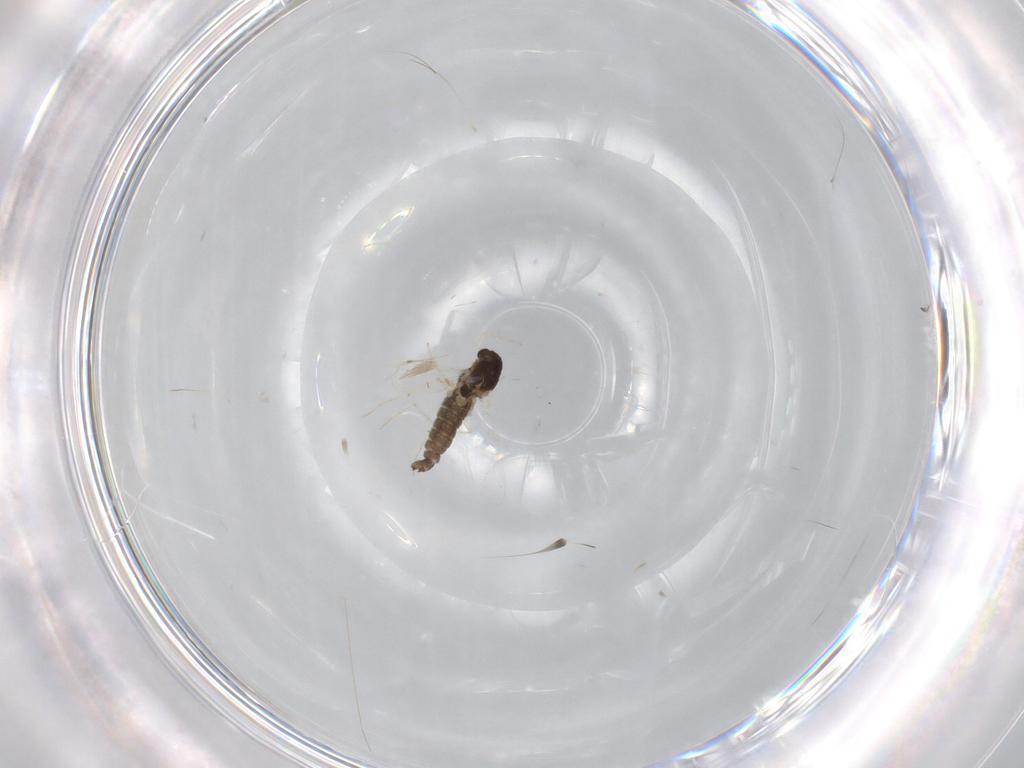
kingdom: Animalia
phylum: Arthropoda
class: Insecta
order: Diptera
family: Chironomidae
